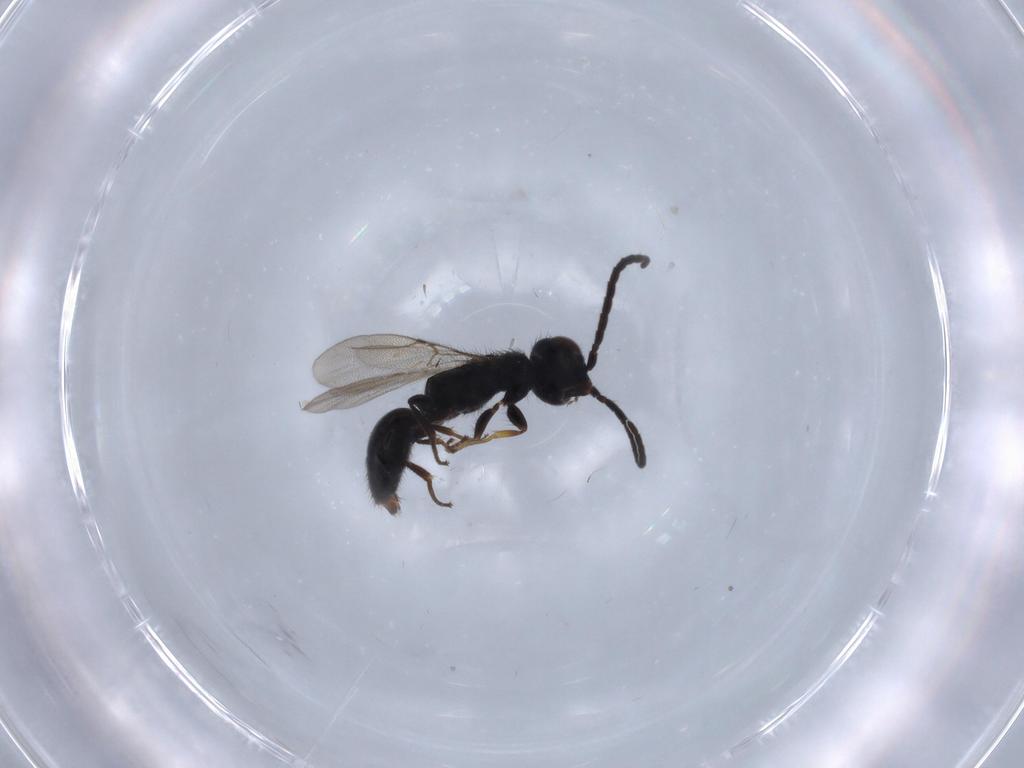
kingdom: Animalia
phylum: Arthropoda
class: Insecta
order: Hymenoptera
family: Bethylidae
